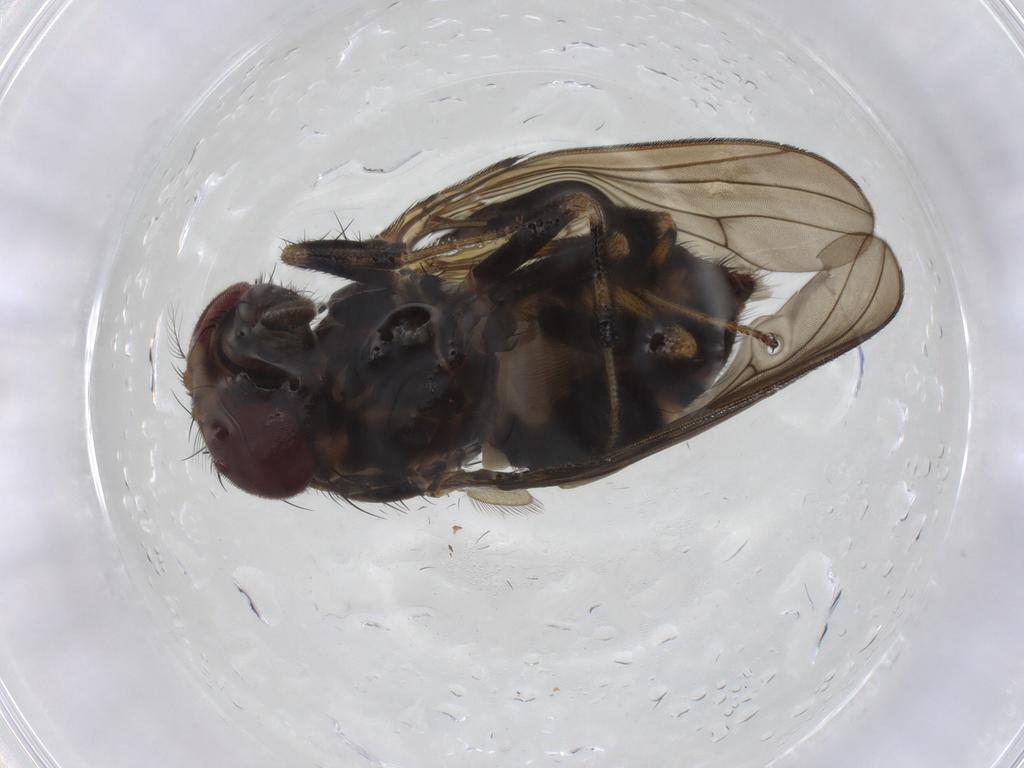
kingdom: Animalia
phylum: Arthropoda
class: Insecta
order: Diptera
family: Drosophilidae
